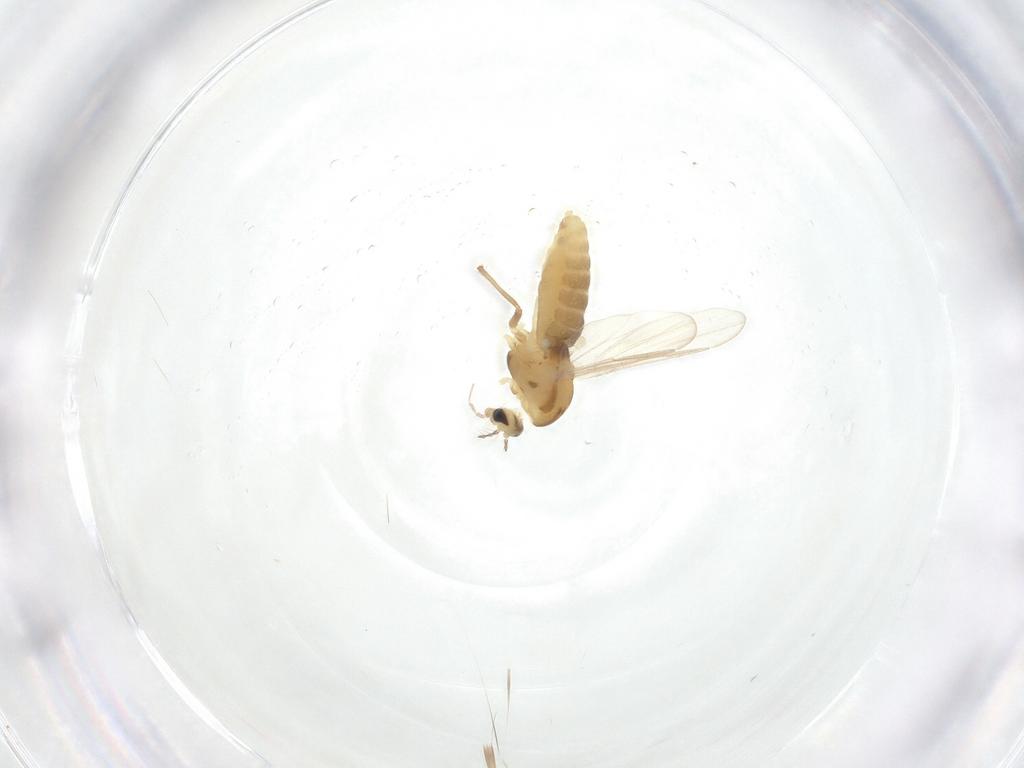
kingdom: Animalia
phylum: Arthropoda
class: Insecta
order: Diptera
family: Chironomidae
